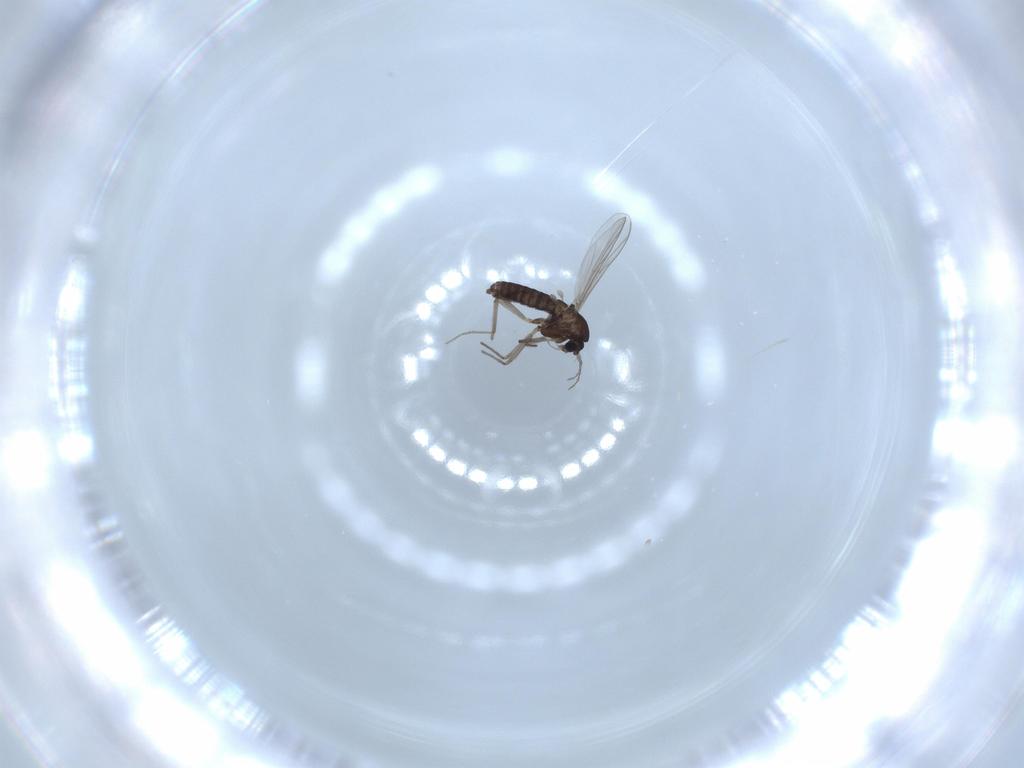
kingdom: Animalia
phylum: Arthropoda
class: Insecta
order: Diptera
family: Chironomidae
